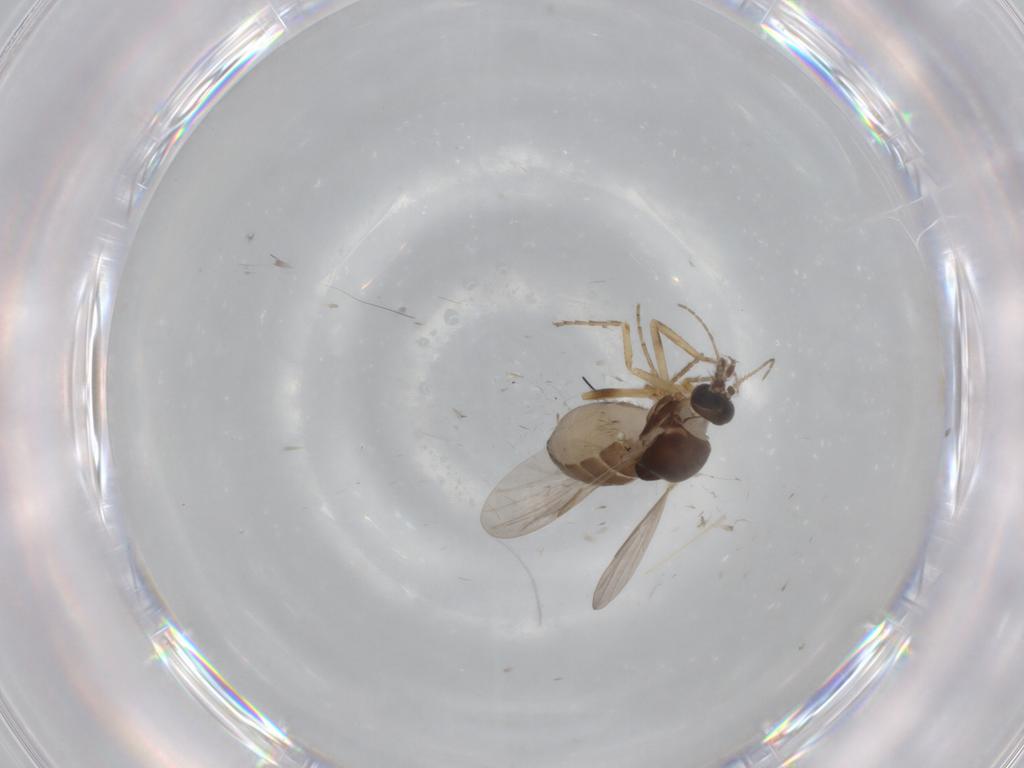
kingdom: Animalia
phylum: Arthropoda
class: Insecta
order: Diptera
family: Ceratopogonidae
